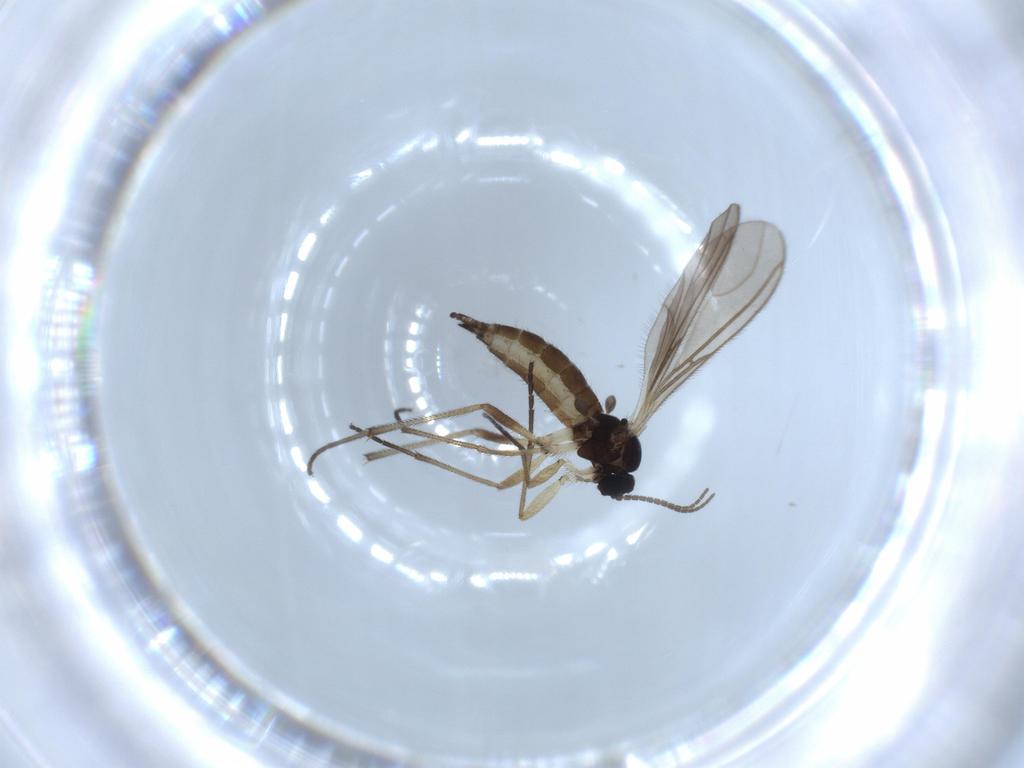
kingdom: Animalia
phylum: Arthropoda
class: Insecta
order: Diptera
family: Sciaridae
